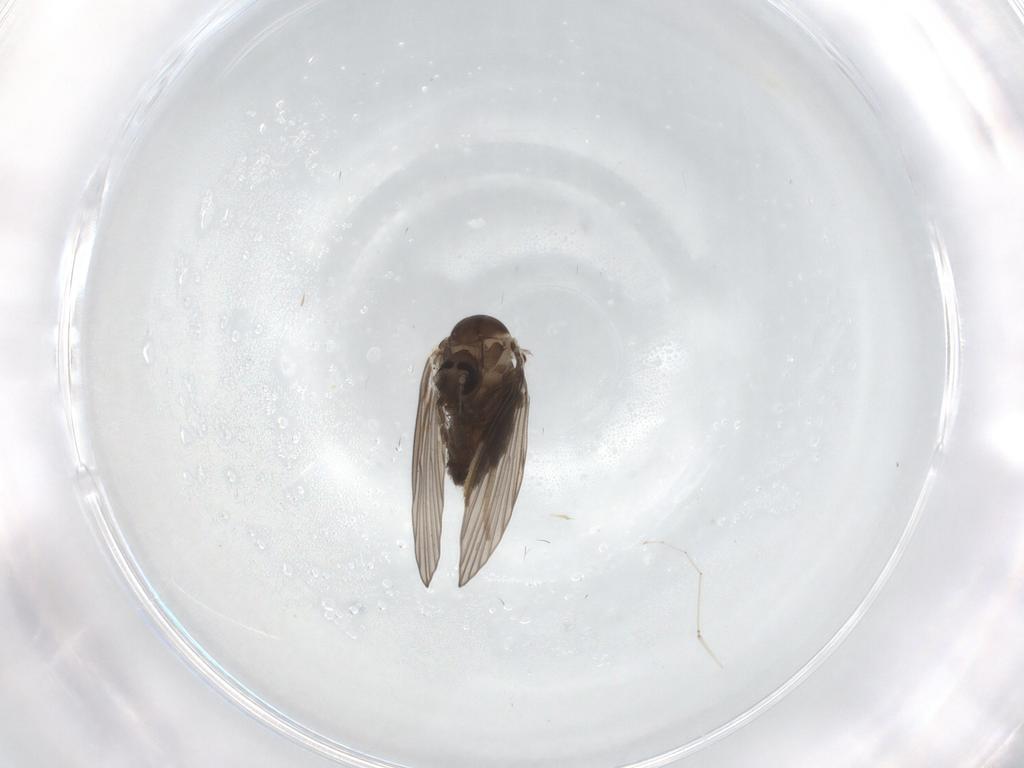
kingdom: Animalia
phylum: Arthropoda
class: Insecta
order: Diptera
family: Psychodidae
